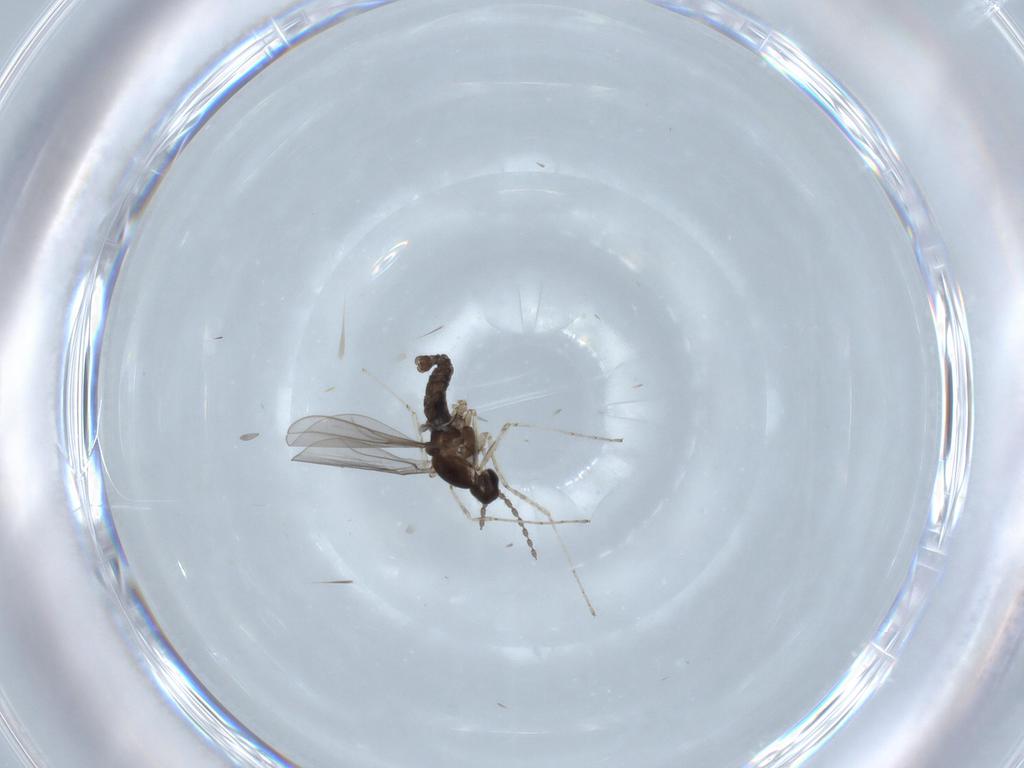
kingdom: Animalia
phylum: Arthropoda
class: Insecta
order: Diptera
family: Cecidomyiidae
